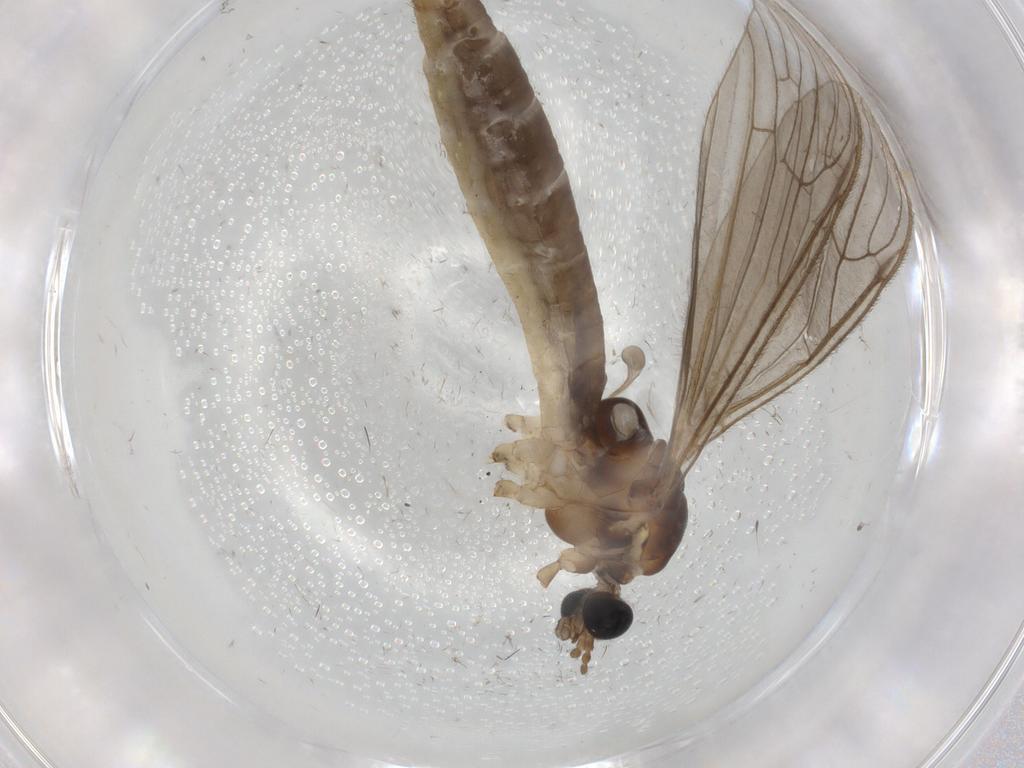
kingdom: Animalia
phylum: Arthropoda
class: Insecta
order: Diptera
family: Limoniidae
